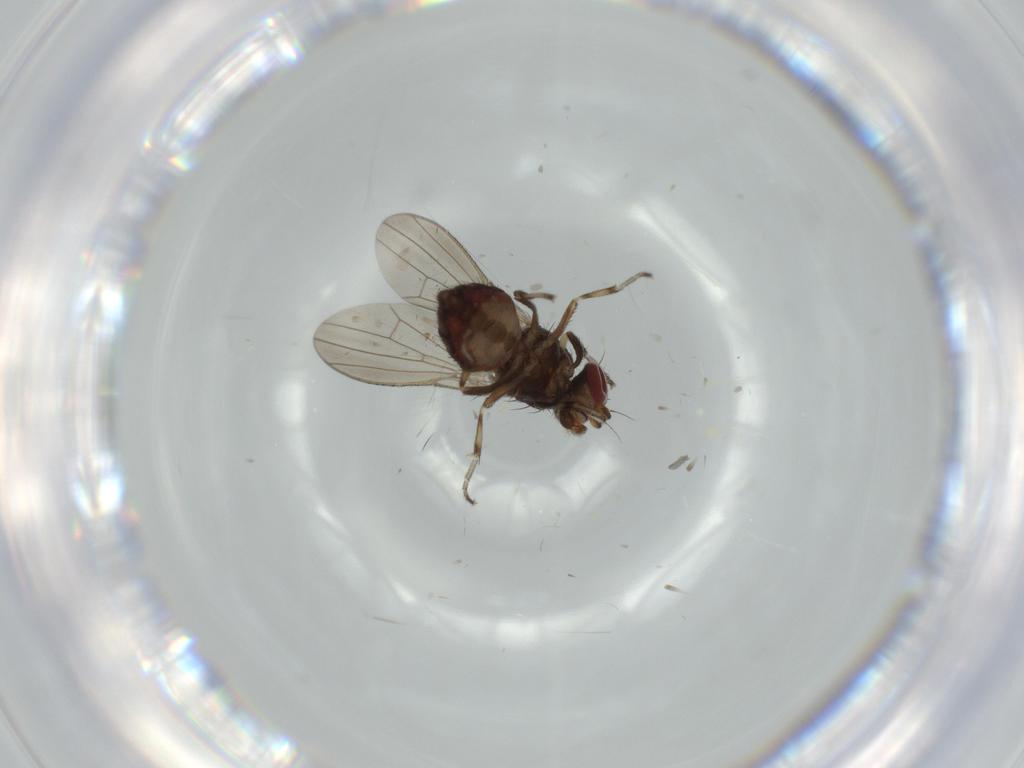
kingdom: Animalia
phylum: Arthropoda
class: Insecta
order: Diptera
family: Heleomyzidae
